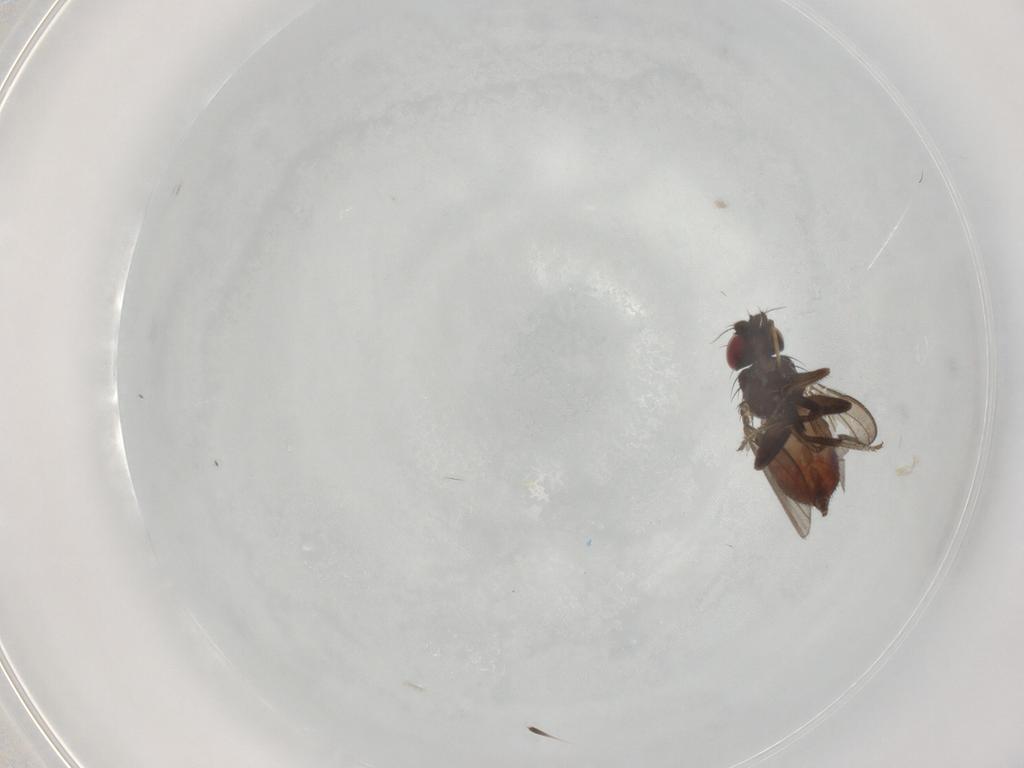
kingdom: Animalia
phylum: Arthropoda
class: Insecta
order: Diptera
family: Milichiidae
